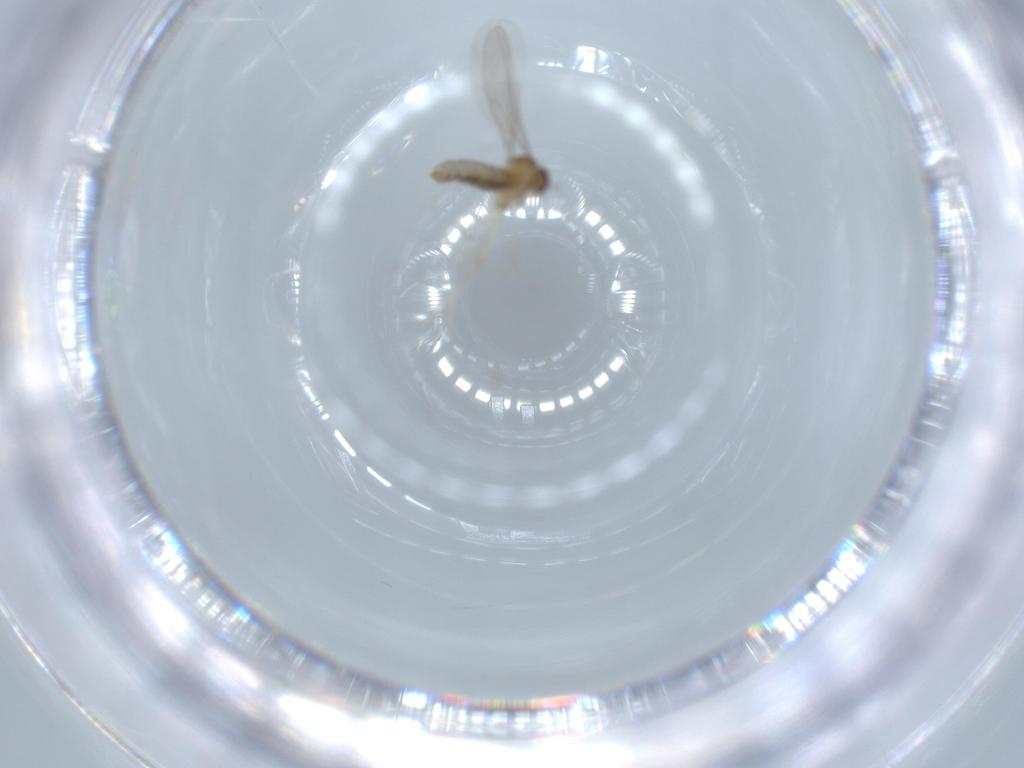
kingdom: Animalia
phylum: Arthropoda
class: Insecta
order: Diptera
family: Cecidomyiidae
